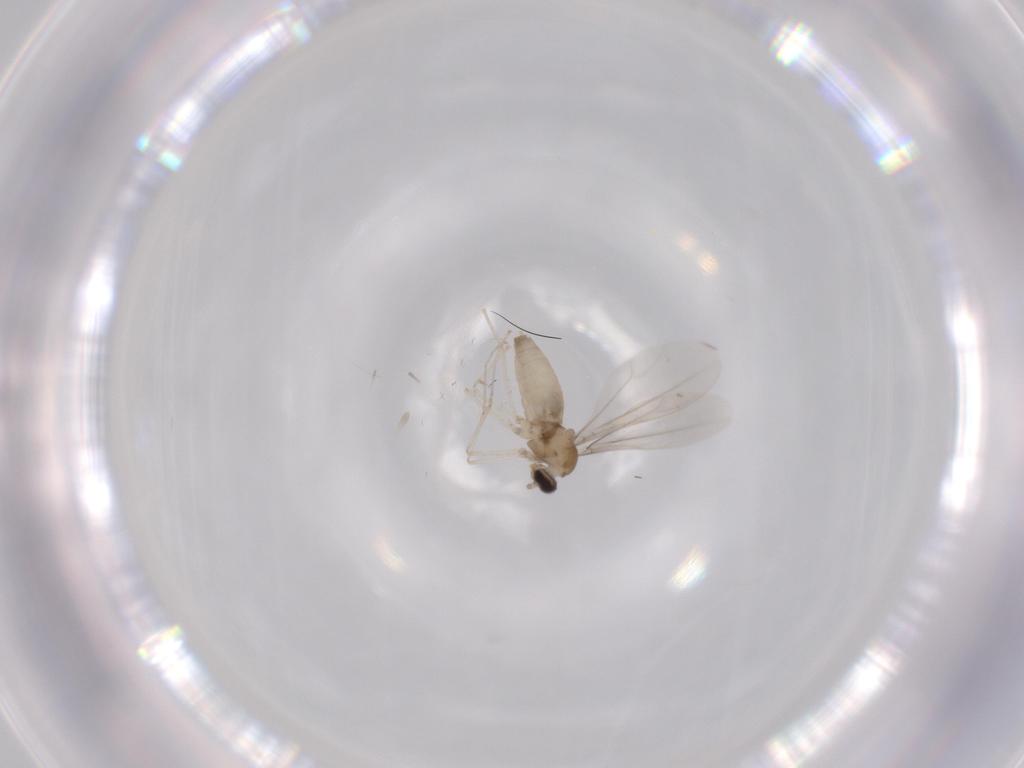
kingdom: Animalia
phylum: Arthropoda
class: Insecta
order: Diptera
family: Cecidomyiidae
